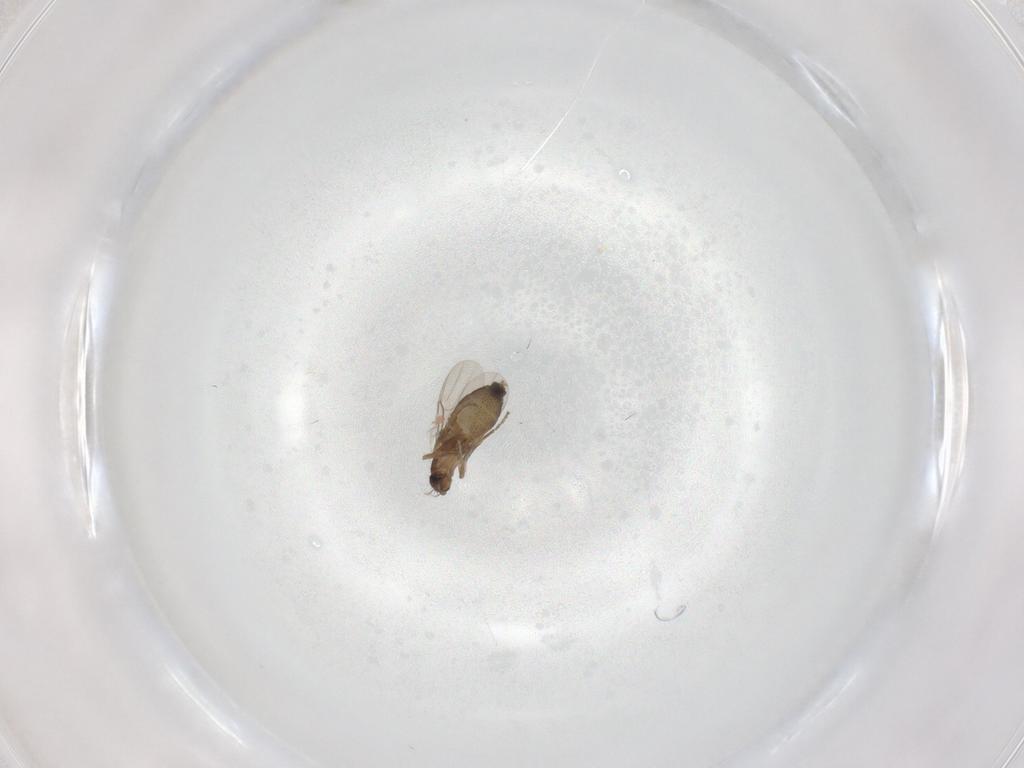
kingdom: Animalia
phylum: Arthropoda
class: Insecta
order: Diptera
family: Phoridae
